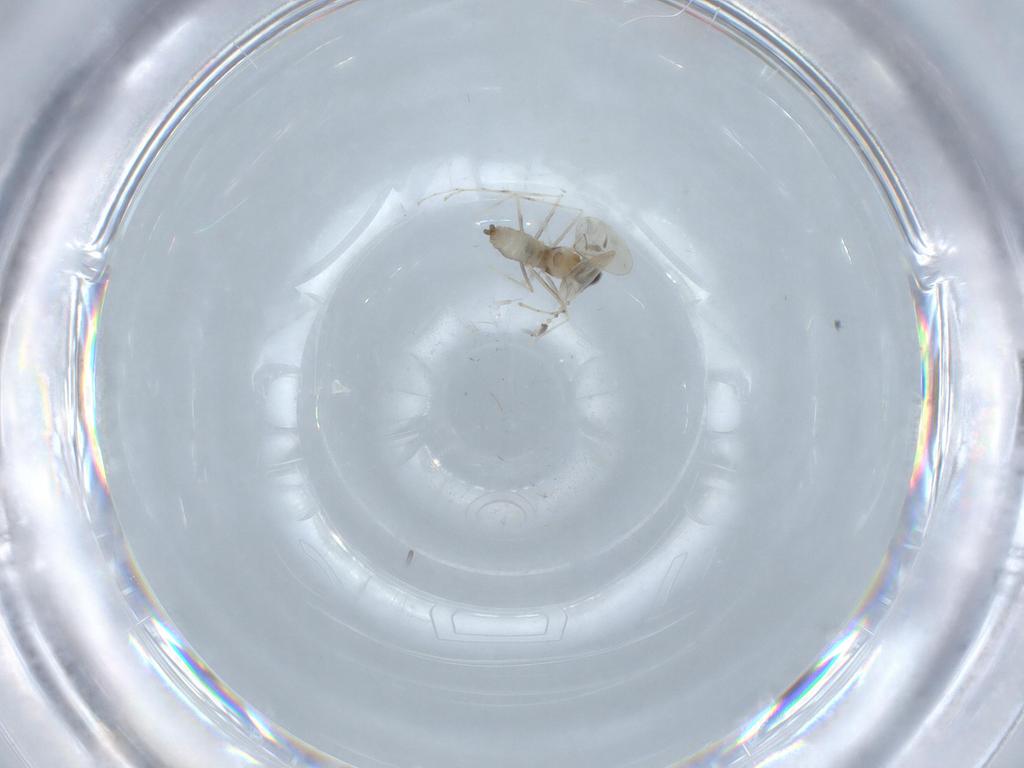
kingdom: Animalia
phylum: Arthropoda
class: Insecta
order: Diptera
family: Cecidomyiidae
